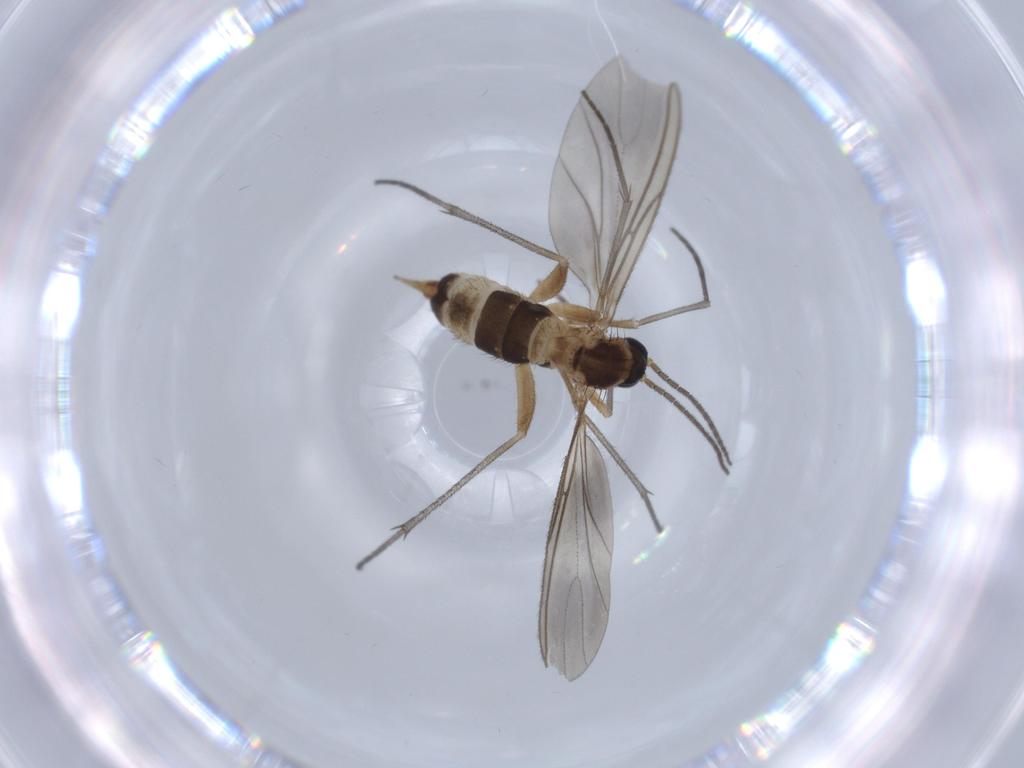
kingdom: Animalia
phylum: Arthropoda
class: Insecta
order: Diptera
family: Sciaridae
